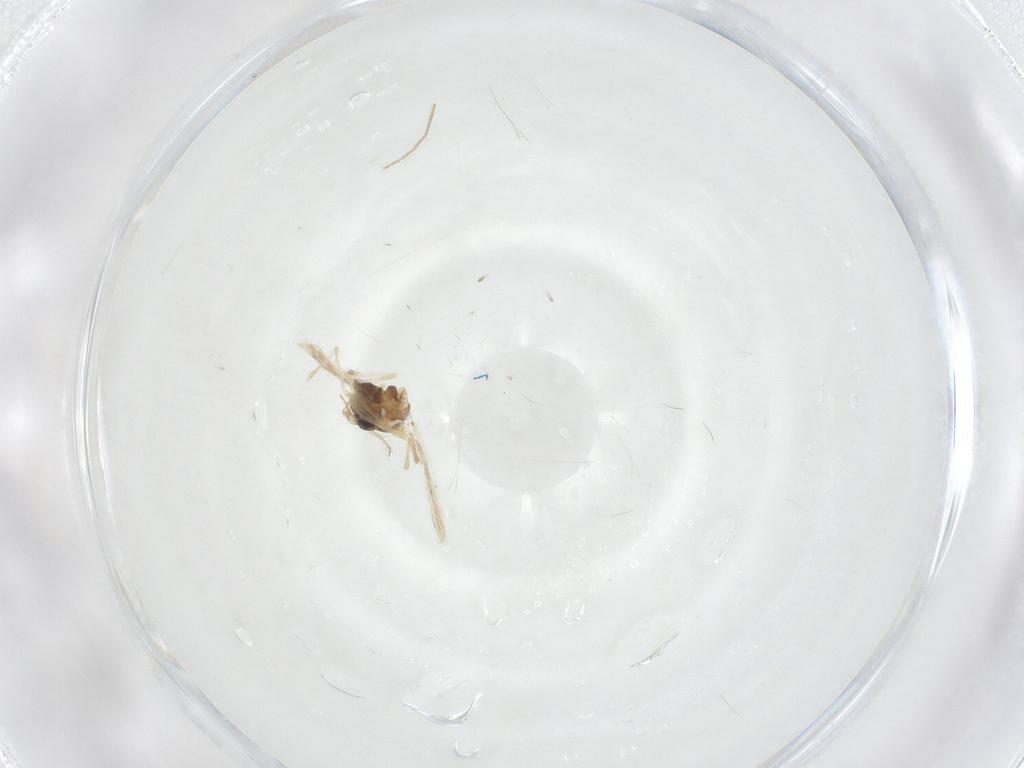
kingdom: Animalia
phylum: Arthropoda
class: Insecta
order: Diptera
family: Chironomidae
